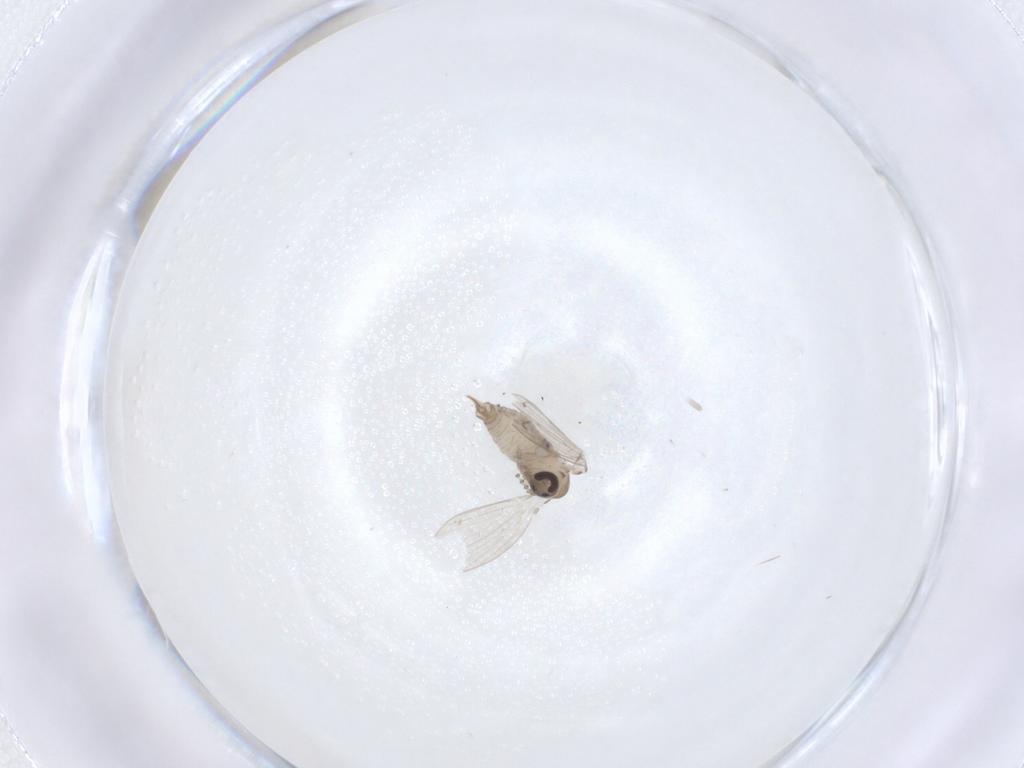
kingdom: Animalia
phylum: Arthropoda
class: Insecta
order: Diptera
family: Psychodidae
